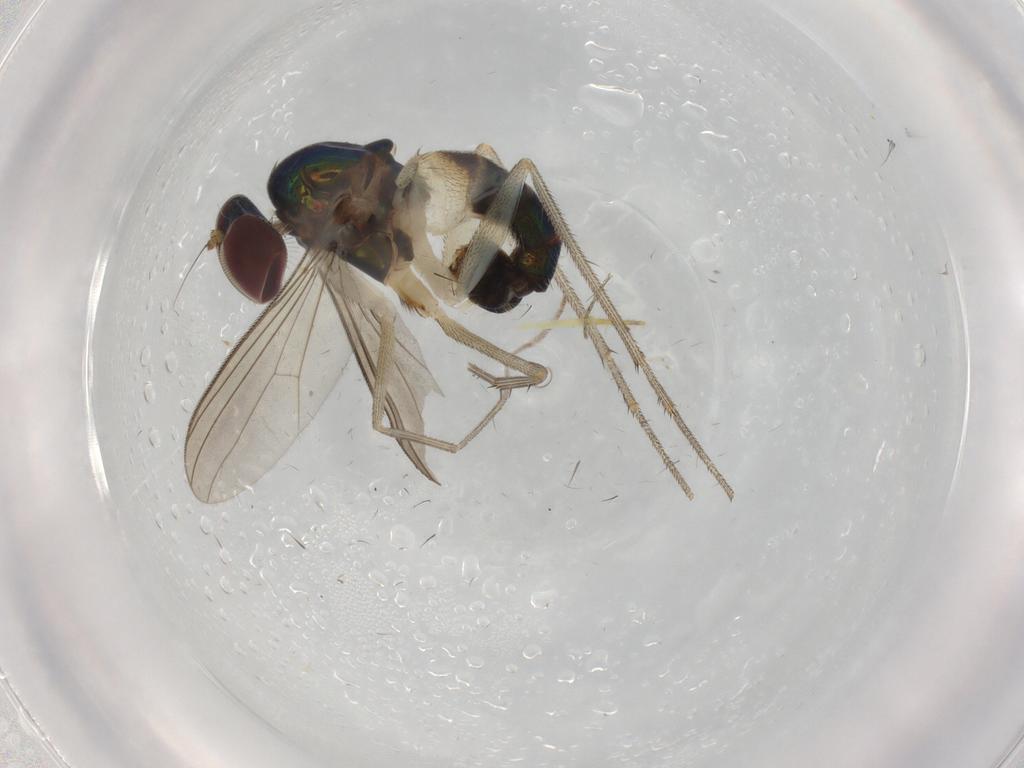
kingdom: Animalia
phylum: Arthropoda
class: Insecta
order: Diptera
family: Dolichopodidae
